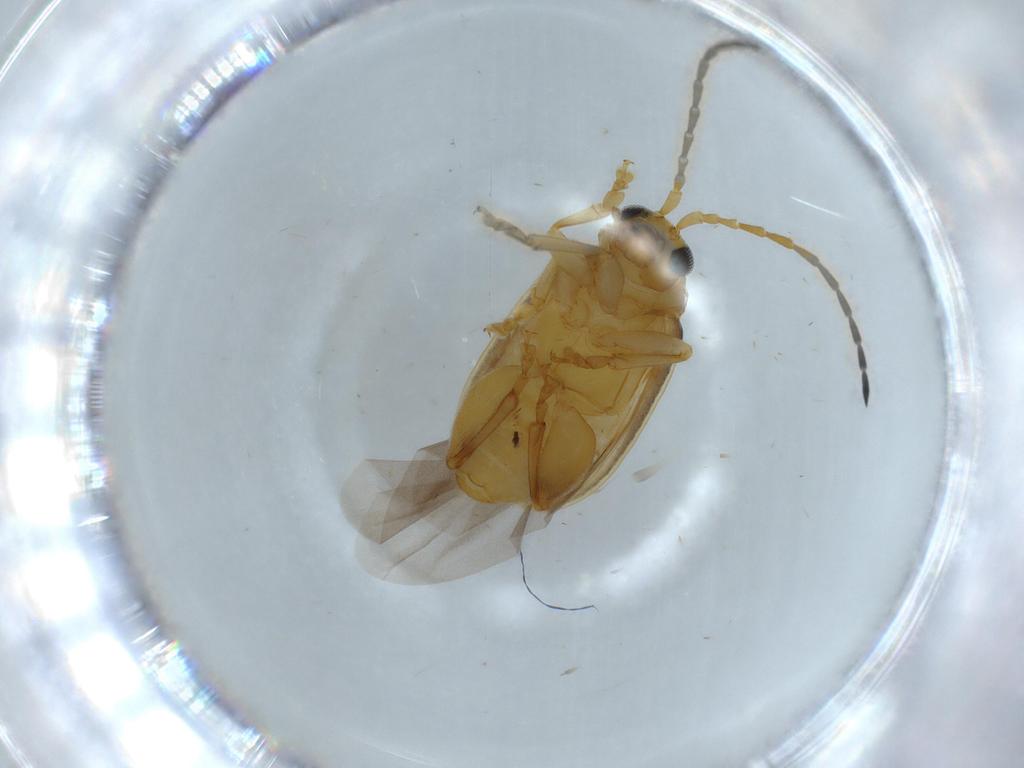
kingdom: Animalia
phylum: Arthropoda
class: Insecta
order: Coleoptera
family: Chrysomelidae
